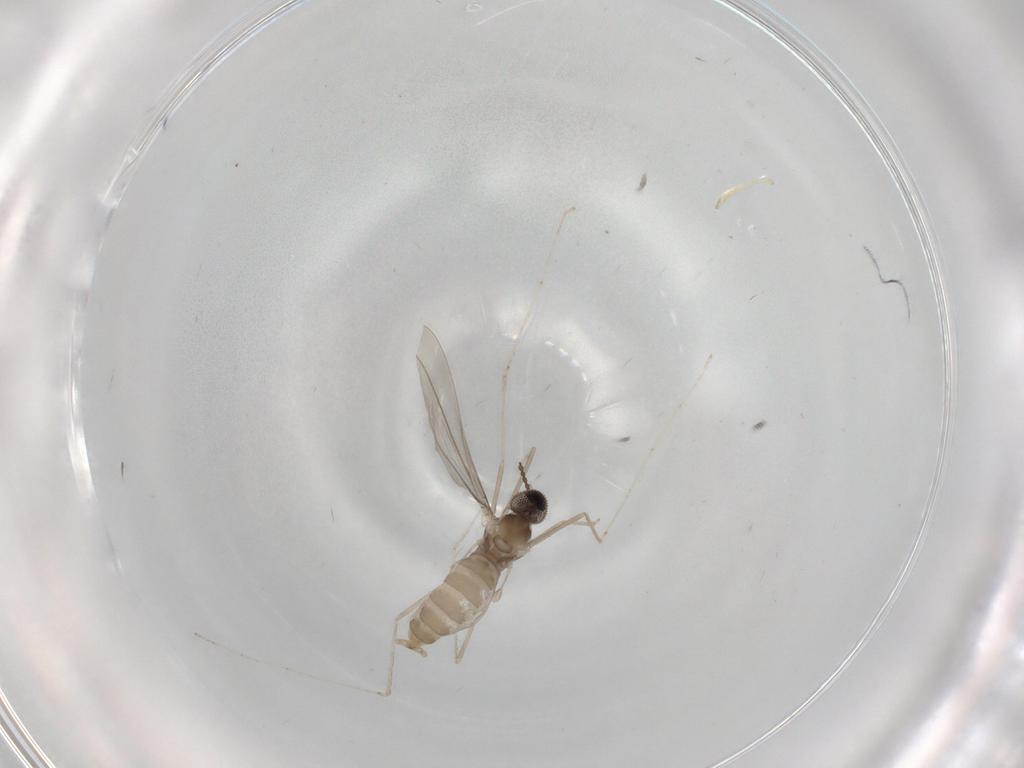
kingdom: Animalia
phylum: Arthropoda
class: Insecta
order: Diptera
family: Cecidomyiidae
